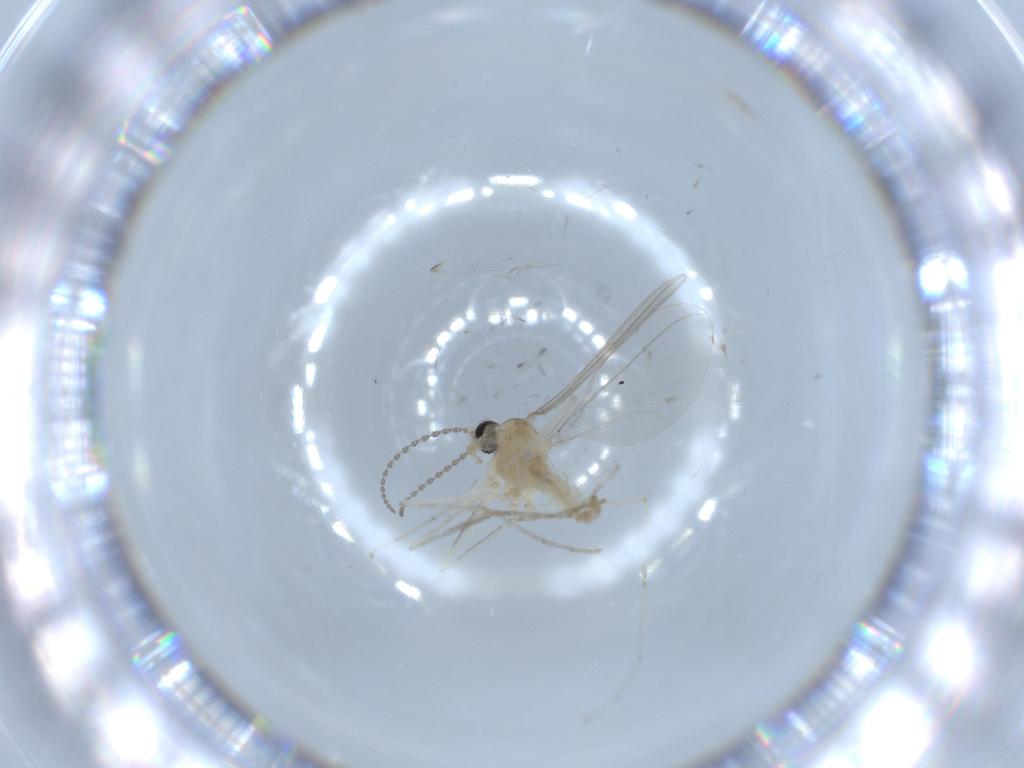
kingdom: Animalia
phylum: Arthropoda
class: Insecta
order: Diptera
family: Cecidomyiidae
